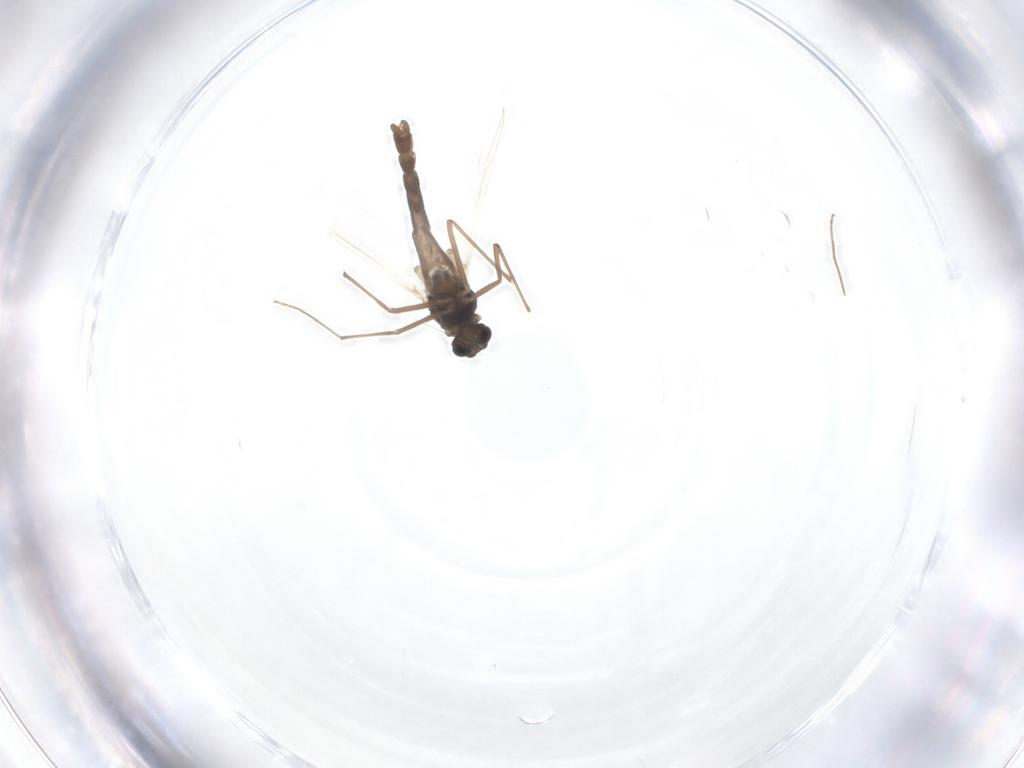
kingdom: Animalia
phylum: Arthropoda
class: Insecta
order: Diptera
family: Chironomidae
